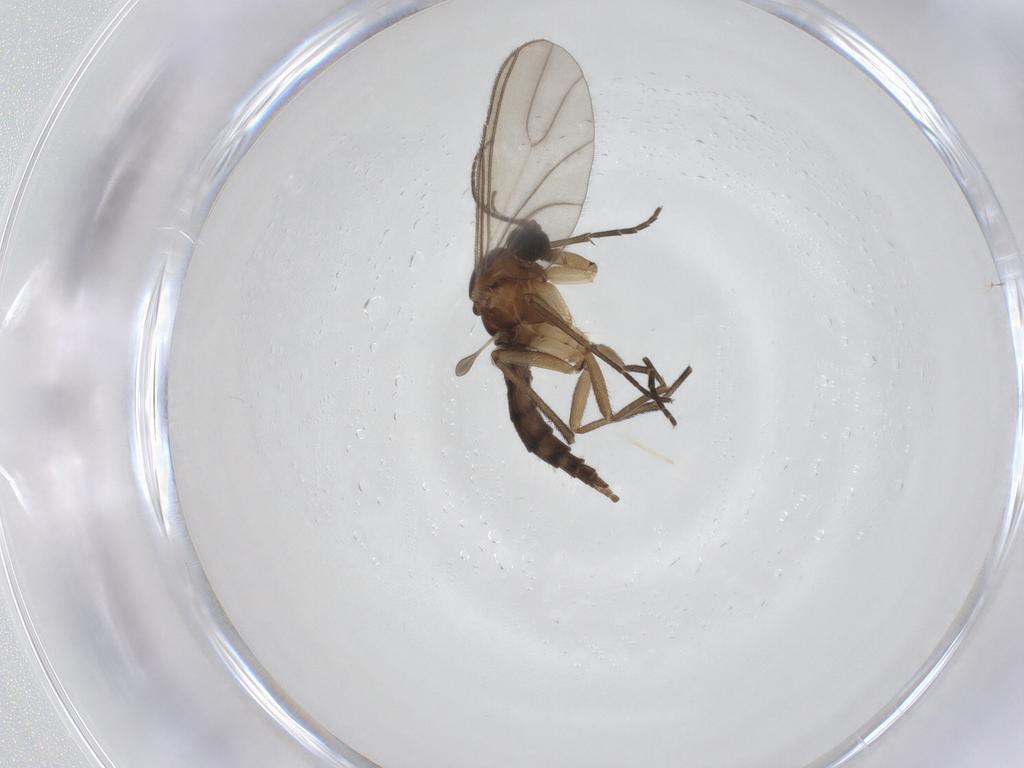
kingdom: Animalia
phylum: Arthropoda
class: Insecta
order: Diptera
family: Sciaridae
